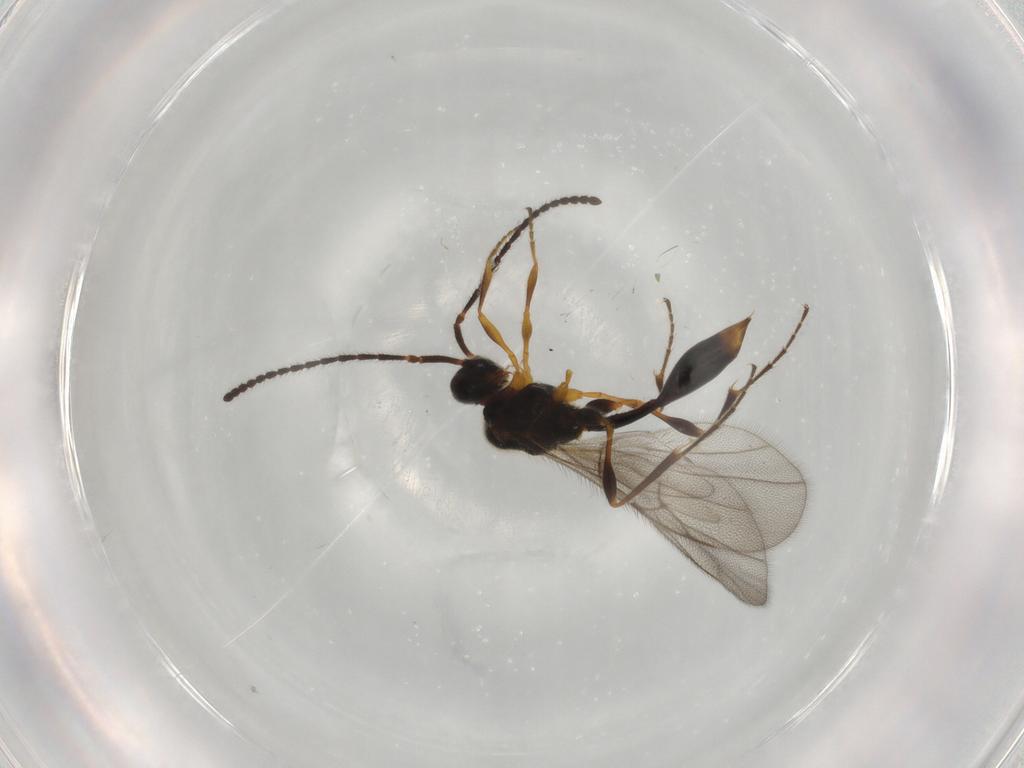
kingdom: Animalia
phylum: Arthropoda
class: Insecta
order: Hymenoptera
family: Diapriidae
